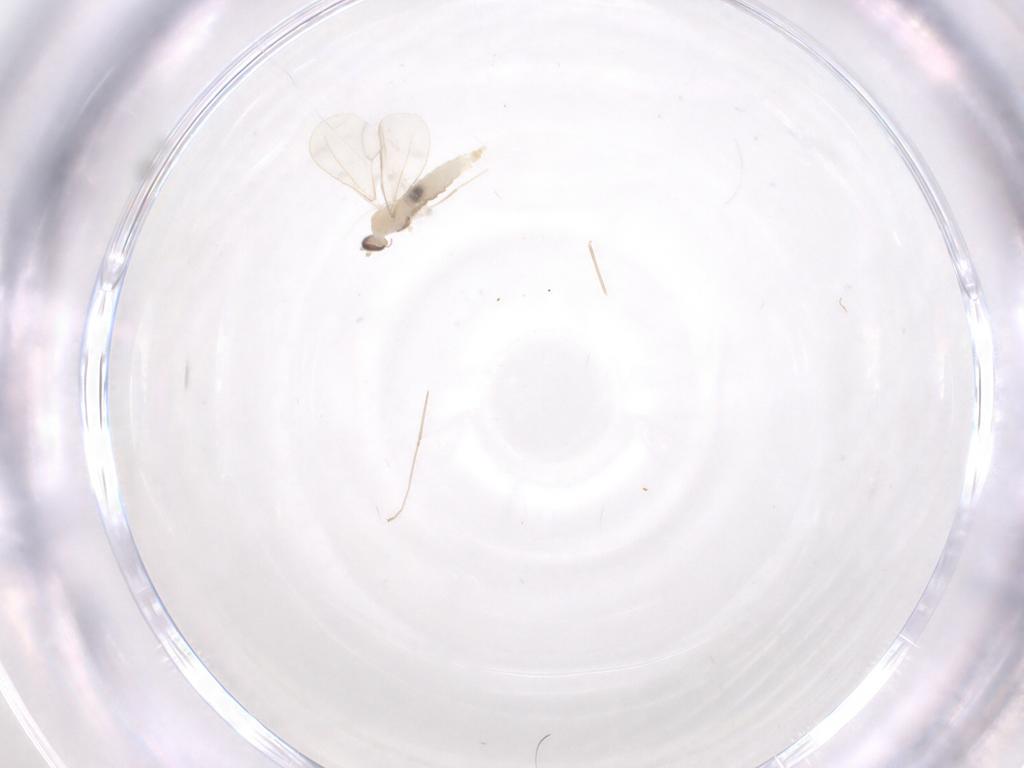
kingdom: Animalia
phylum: Arthropoda
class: Insecta
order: Diptera
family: Cecidomyiidae
